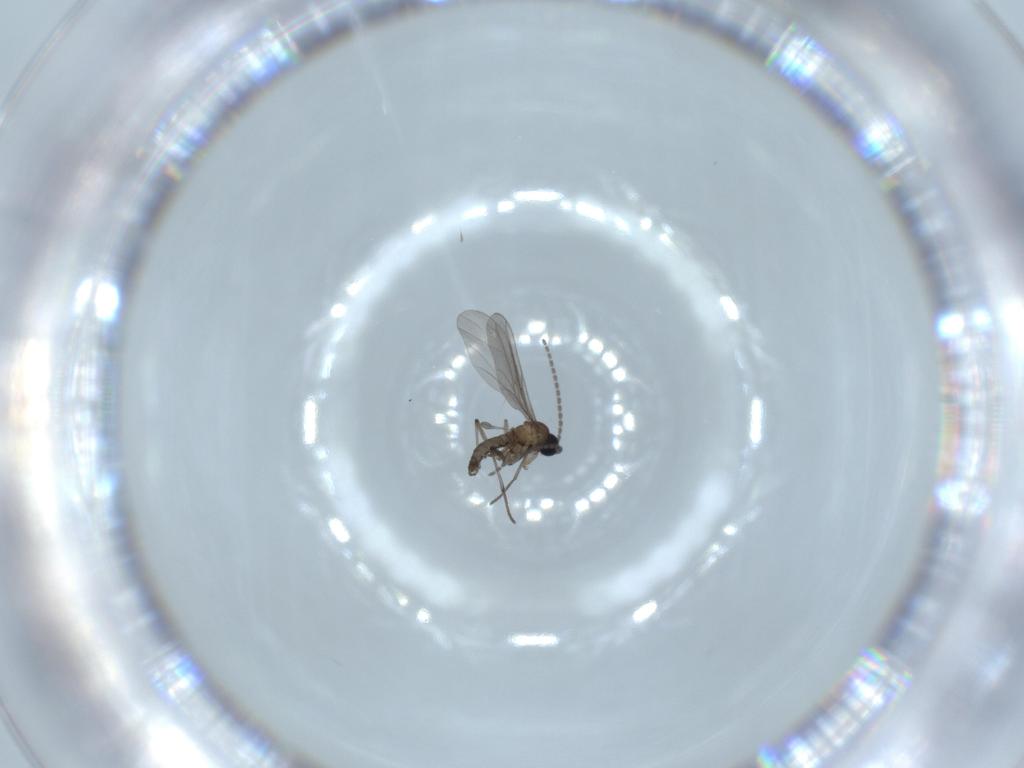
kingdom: Animalia
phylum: Arthropoda
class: Insecta
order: Diptera
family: Sciaridae
